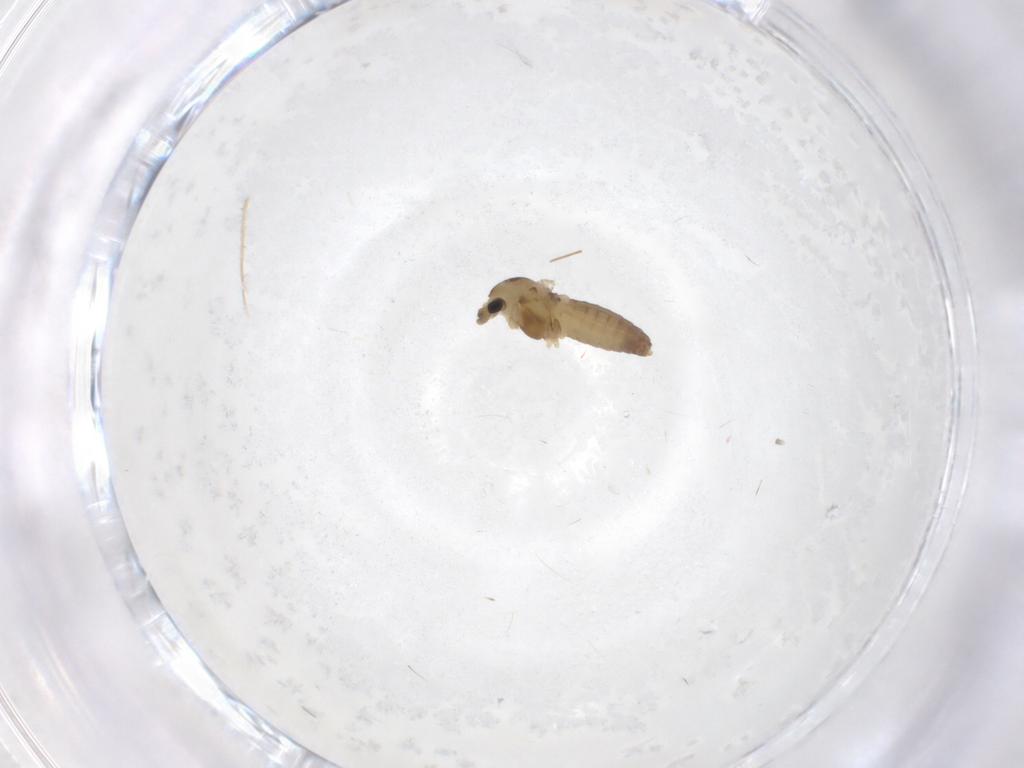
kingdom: Animalia
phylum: Arthropoda
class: Insecta
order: Diptera
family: Chironomidae
